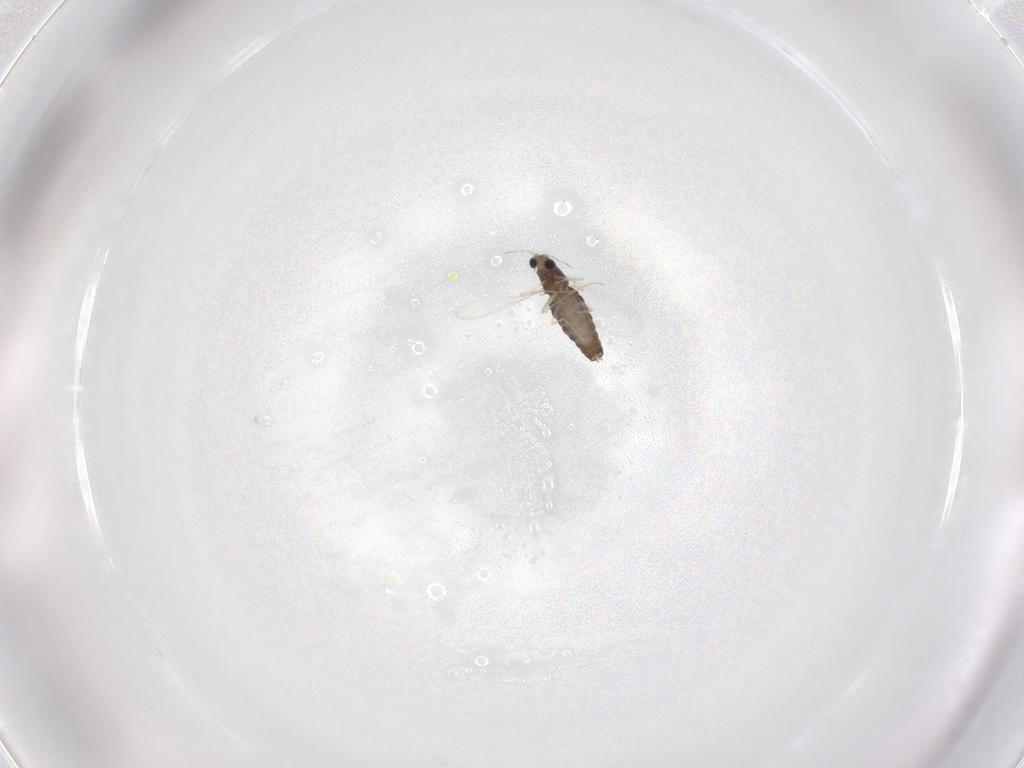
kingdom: Animalia
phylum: Arthropoda
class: Insecta
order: Diptera
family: Chironomidae
